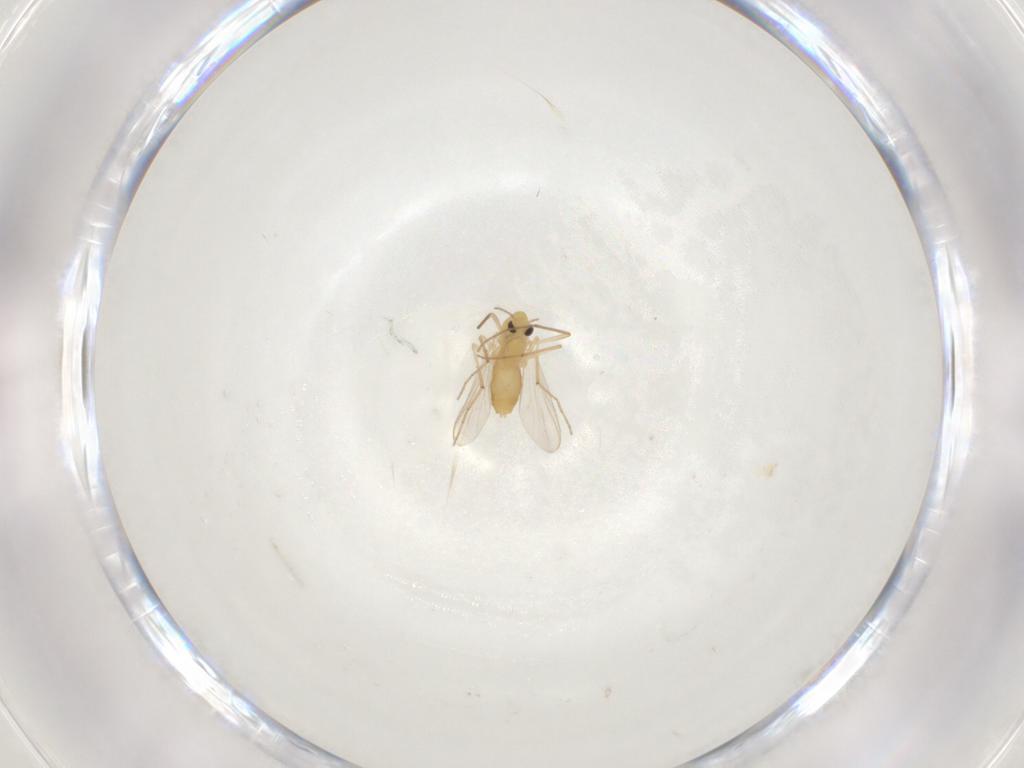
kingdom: Animalia
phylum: Arthropoda
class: Insecta
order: Diptera
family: Chironomidae
